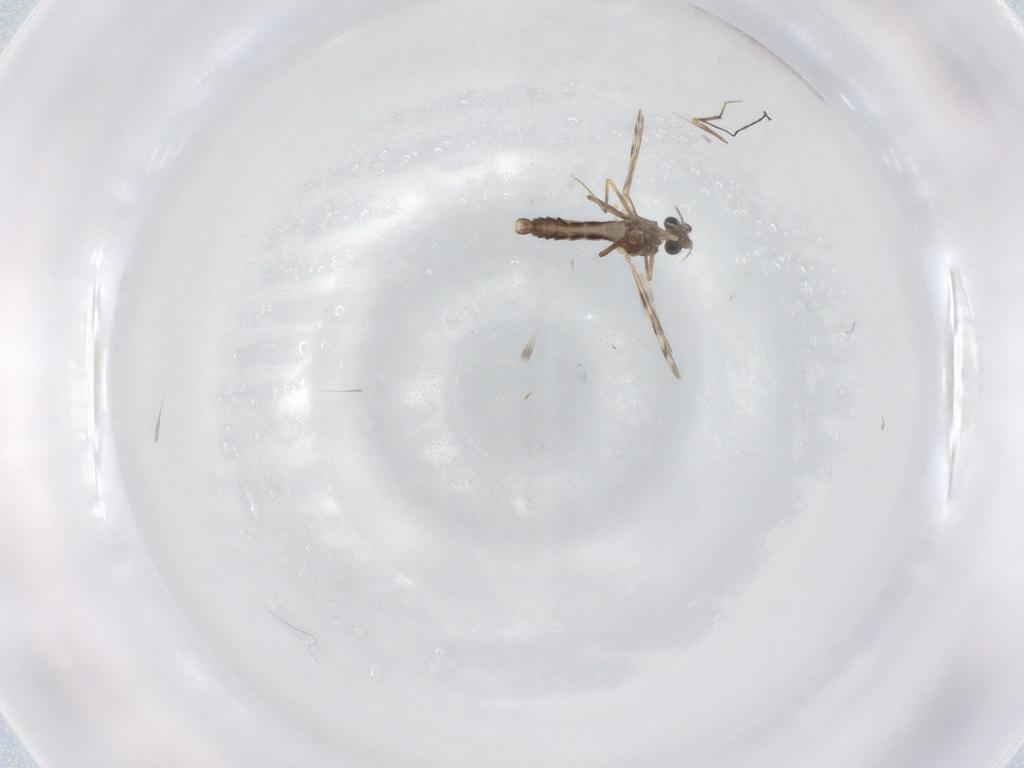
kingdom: Animalia
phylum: Arthropoda
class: Insecta
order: Diptera
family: Ceratopogonidae
